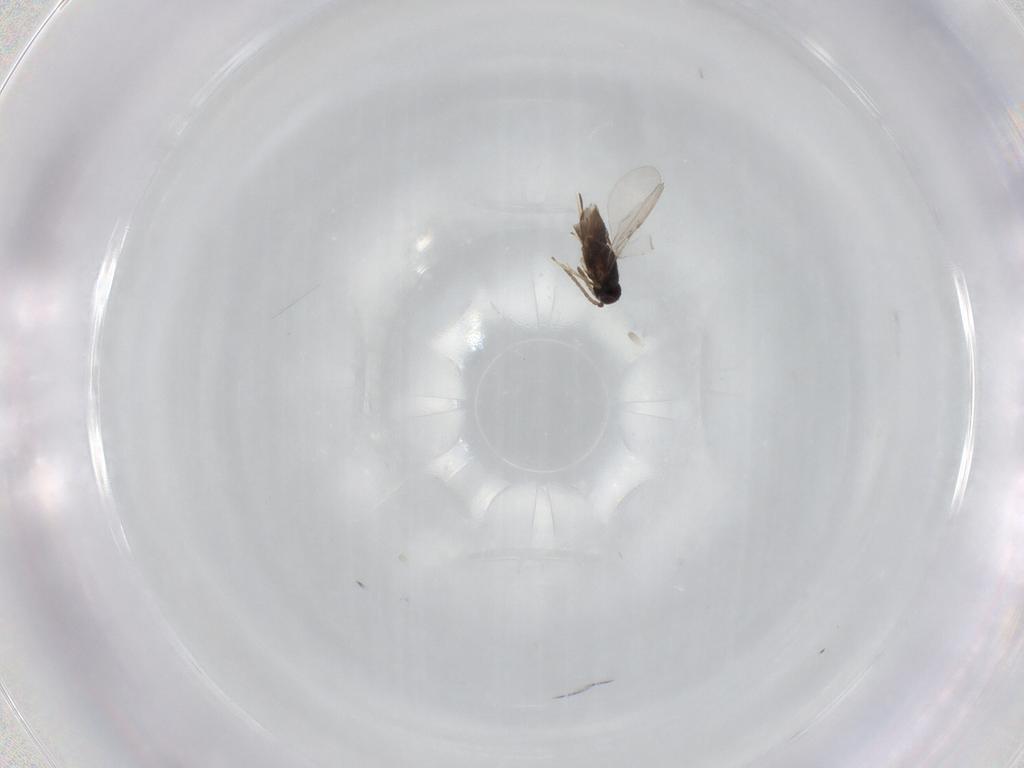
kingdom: Animalia
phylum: Arthropoda
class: Insecta
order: Hymenoptera
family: Encyrtidae
